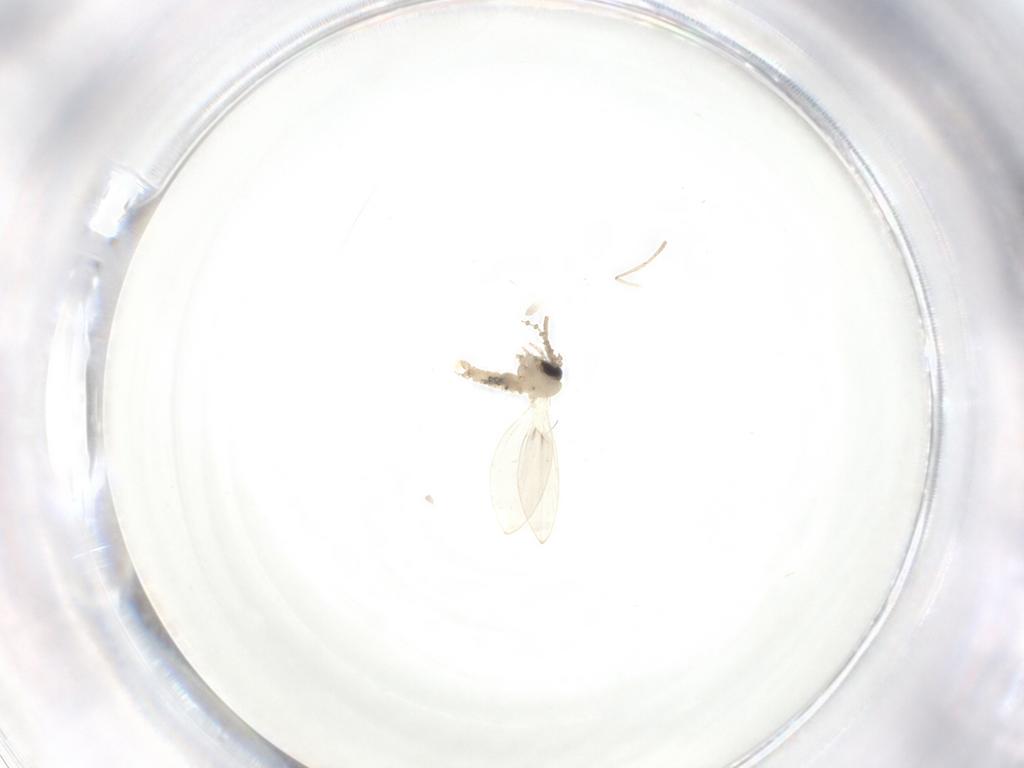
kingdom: Animalia
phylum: Arthropoda
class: Insecta
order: Diptera
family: Psychodidae
